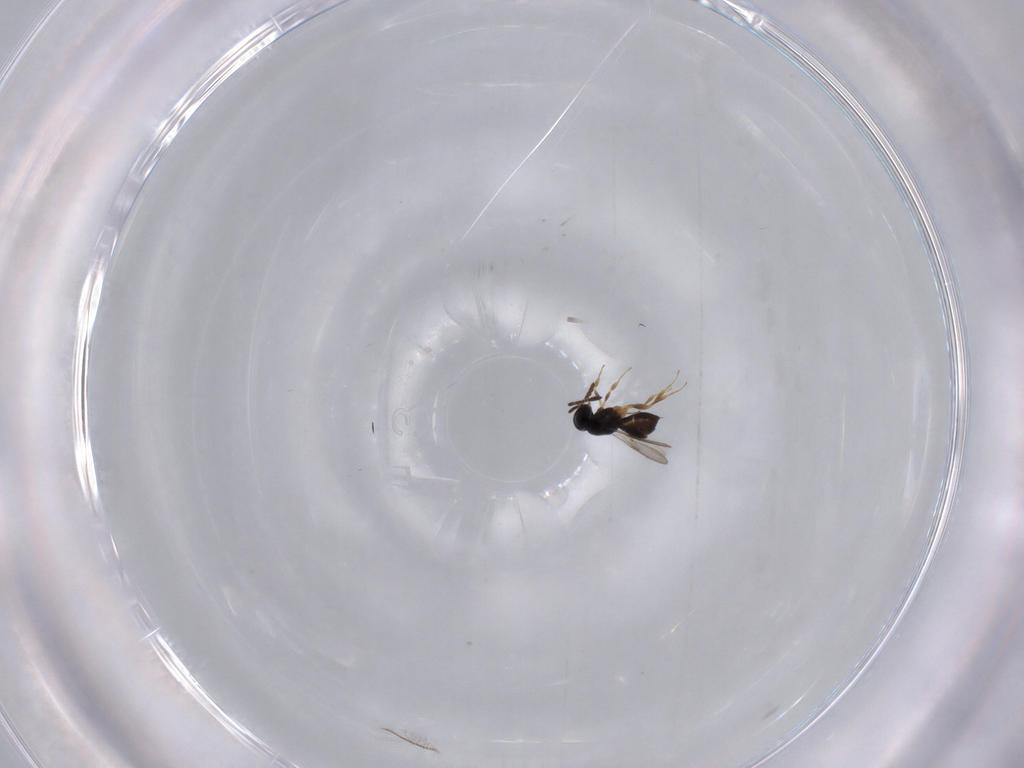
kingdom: Animalia
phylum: Arthropoda
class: Insecta
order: Hymenoptera
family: Scelionidae
